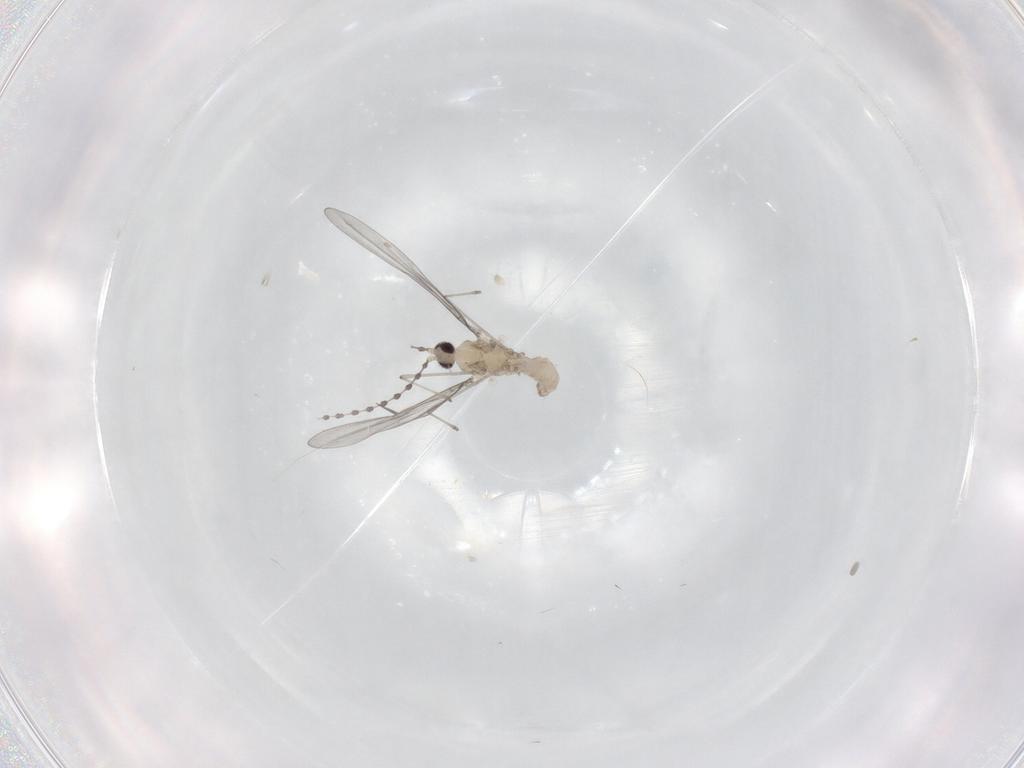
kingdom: Animalia
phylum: Arthropoda
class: Insecta
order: Diptera
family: Cecidomyiidae
